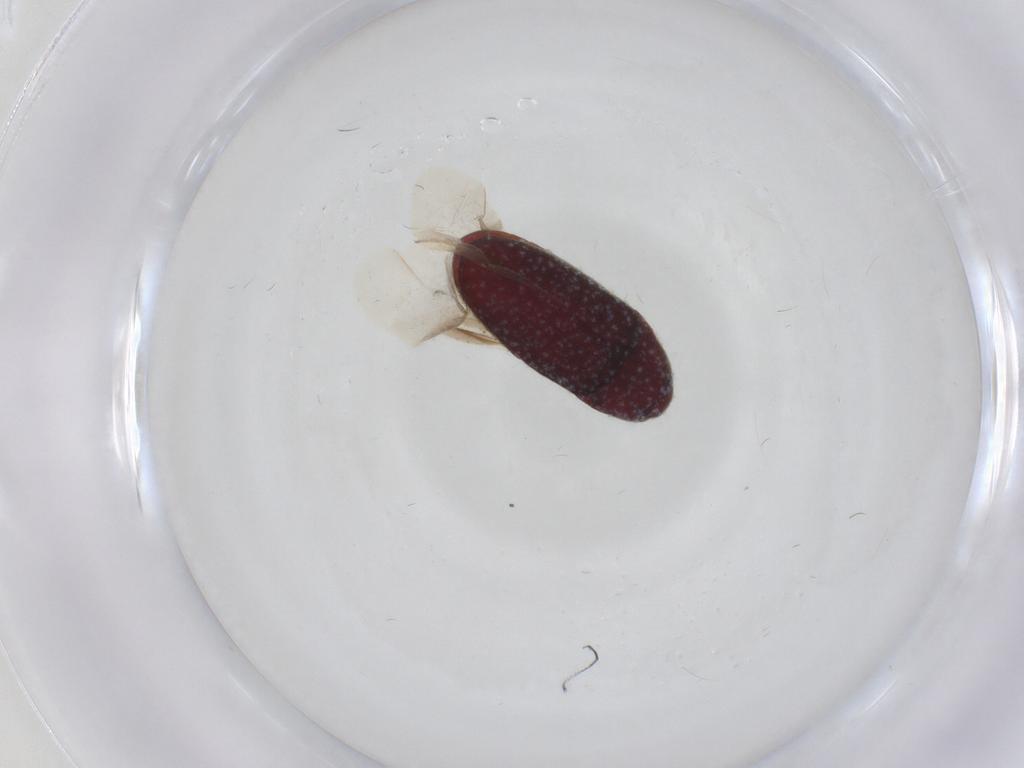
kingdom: Animalia
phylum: Arthropoda
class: Insecta
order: Coleoptera
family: Throscidae
